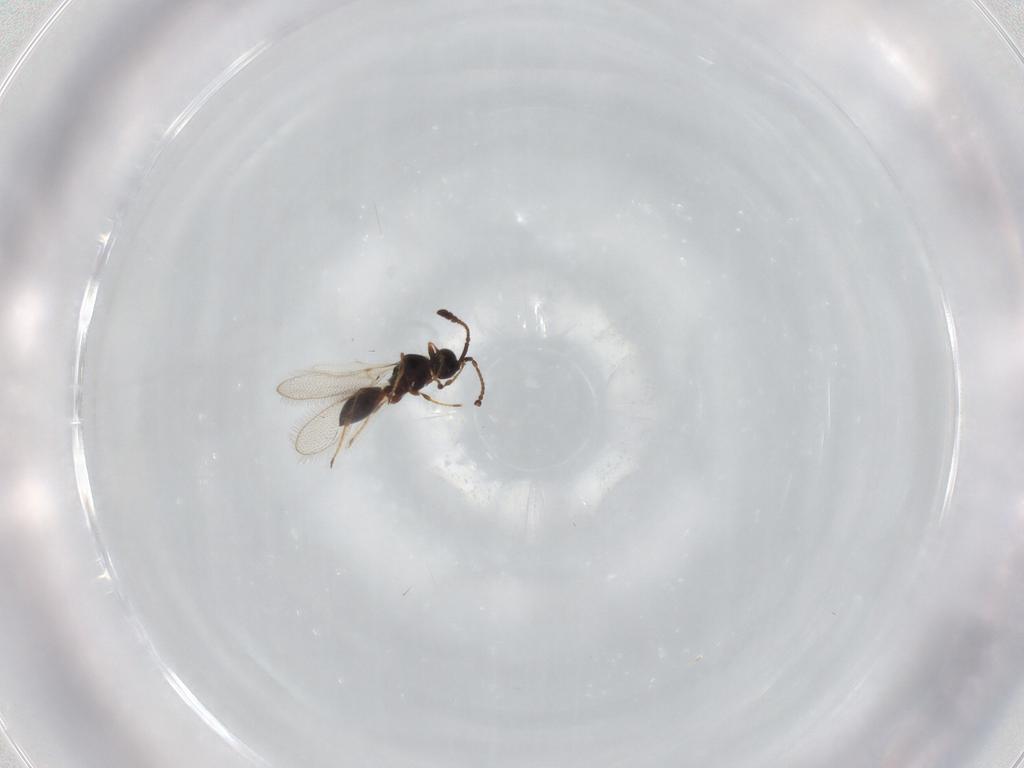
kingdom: Animalia
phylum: Arthropoda
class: Insecta
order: Hymenoptera
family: Diapriidae
